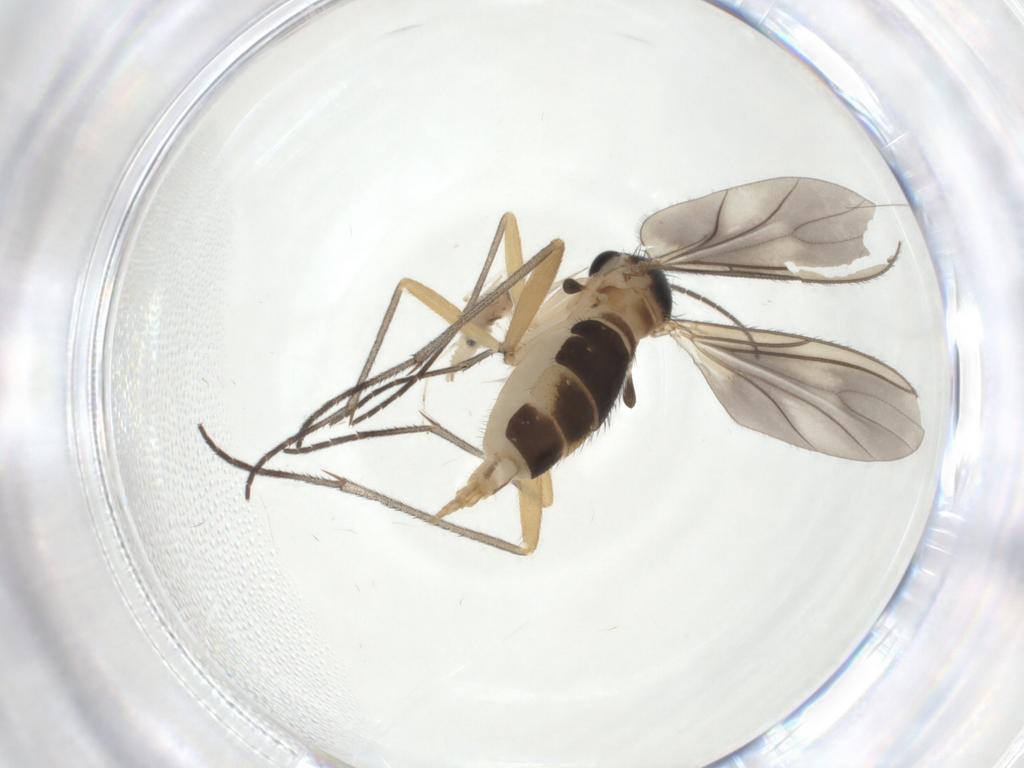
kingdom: Animalia
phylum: Arthropoda
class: Insecta
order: Diptera
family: Sciaridae
